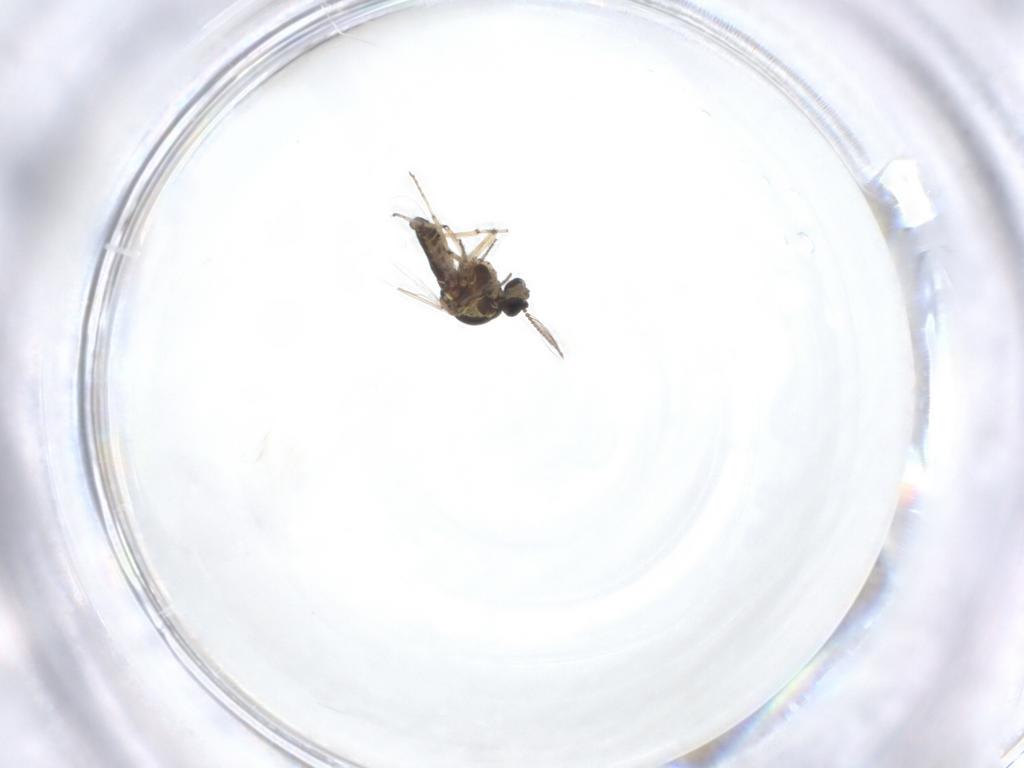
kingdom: Animalia
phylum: Arthropoda
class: Insecta
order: Diptera
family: Ceratopogonidae
